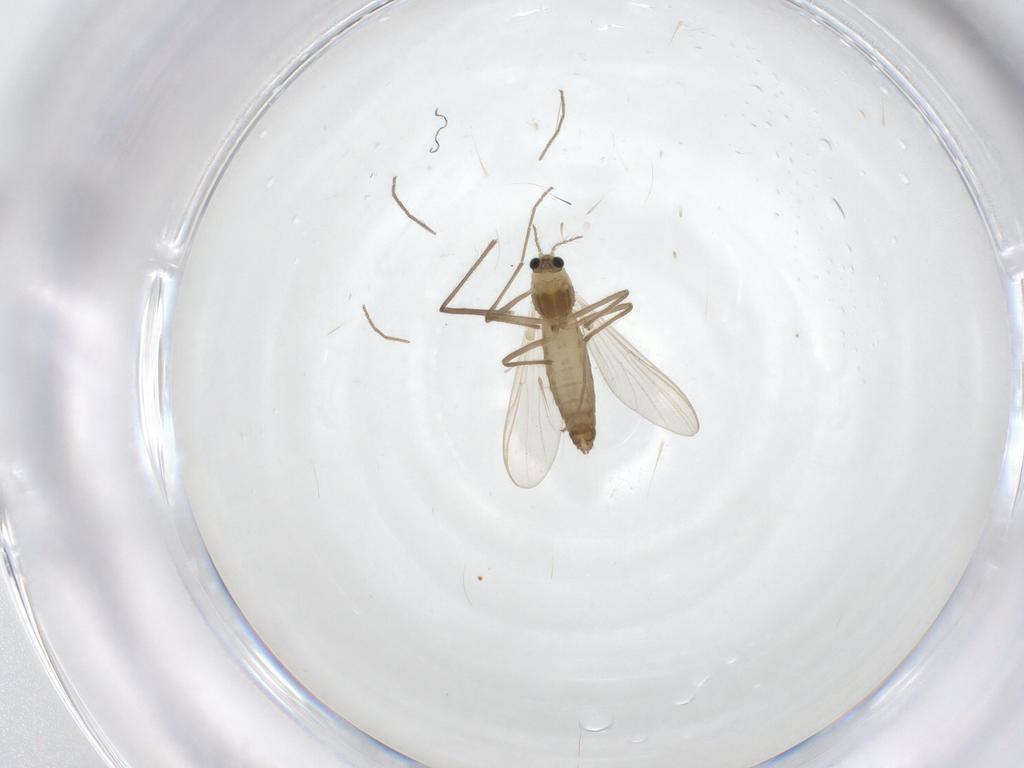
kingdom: Animalia
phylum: Arthropoda
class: Insecta
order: Diptera
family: Chironomidae
